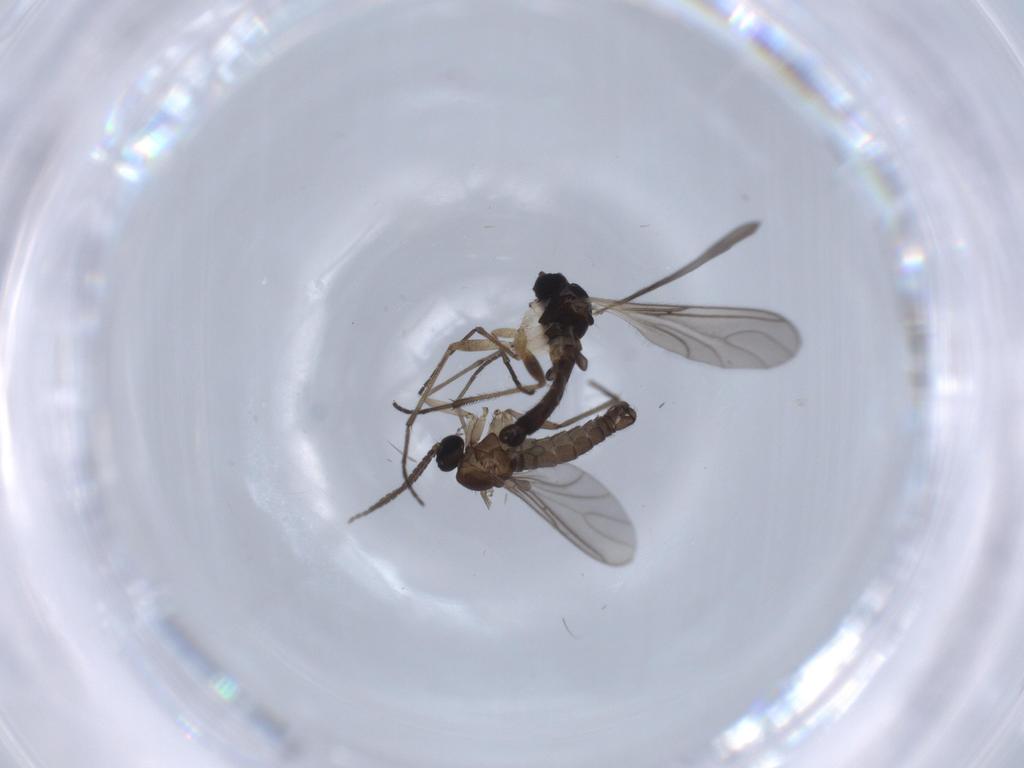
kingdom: Animalia
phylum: Arthropoda
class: Insecta
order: Diptera
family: Sciaridae
